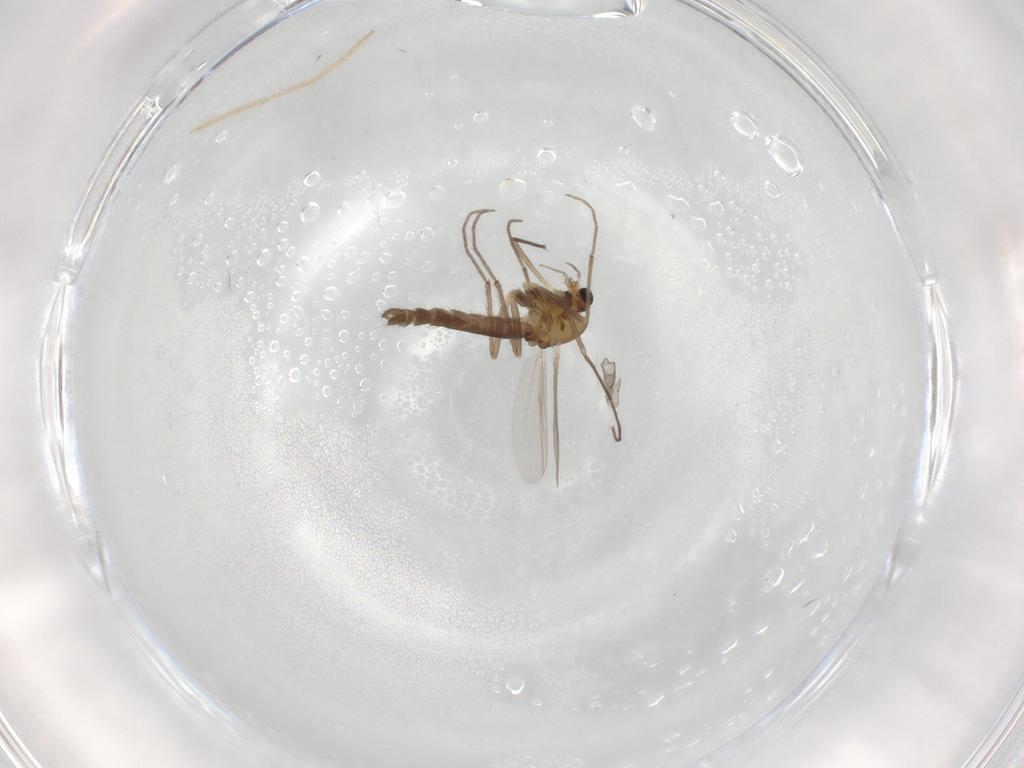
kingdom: Animalia
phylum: Arthropoda
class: Insecta
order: Diptera
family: Chironomidae
